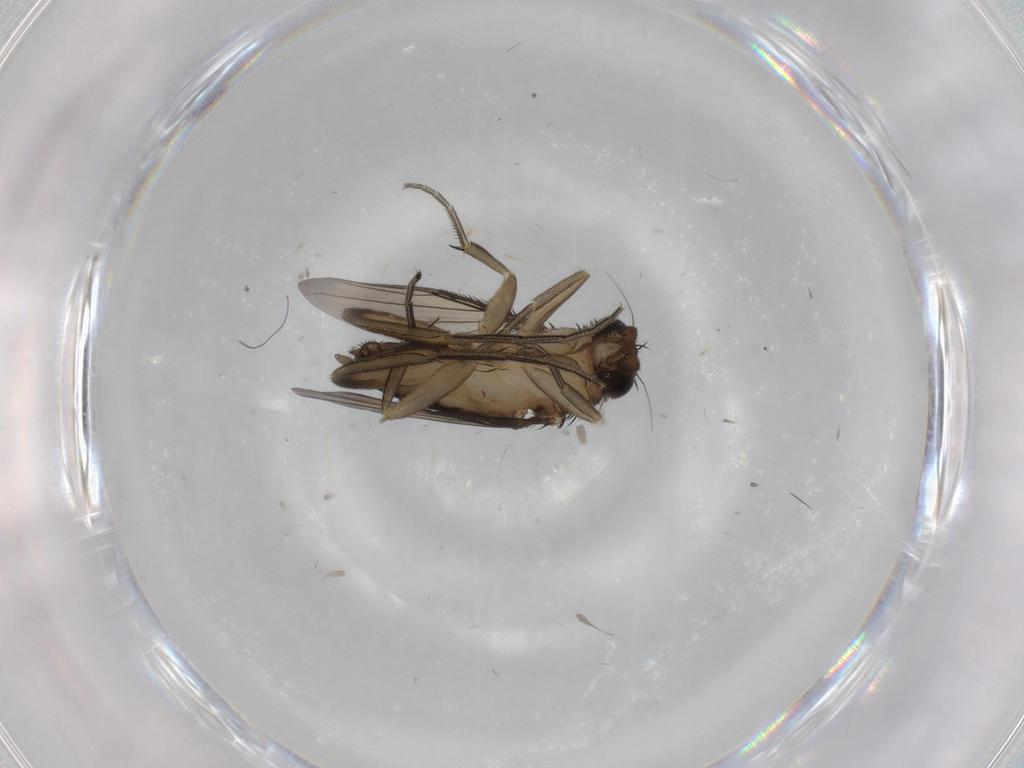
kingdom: Animalia
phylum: Arthropoda
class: Insecta
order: Diptera
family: Phoridae
